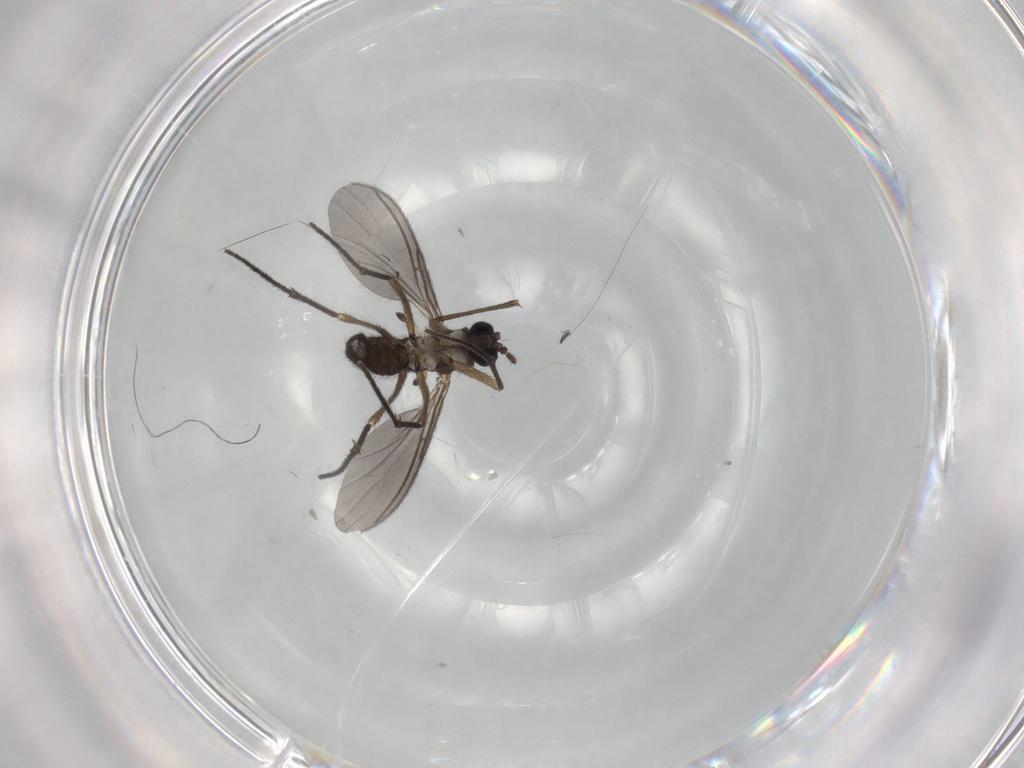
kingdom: Animalia
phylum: Arthropoda
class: Insecta
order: Diptera
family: Sciaridae
